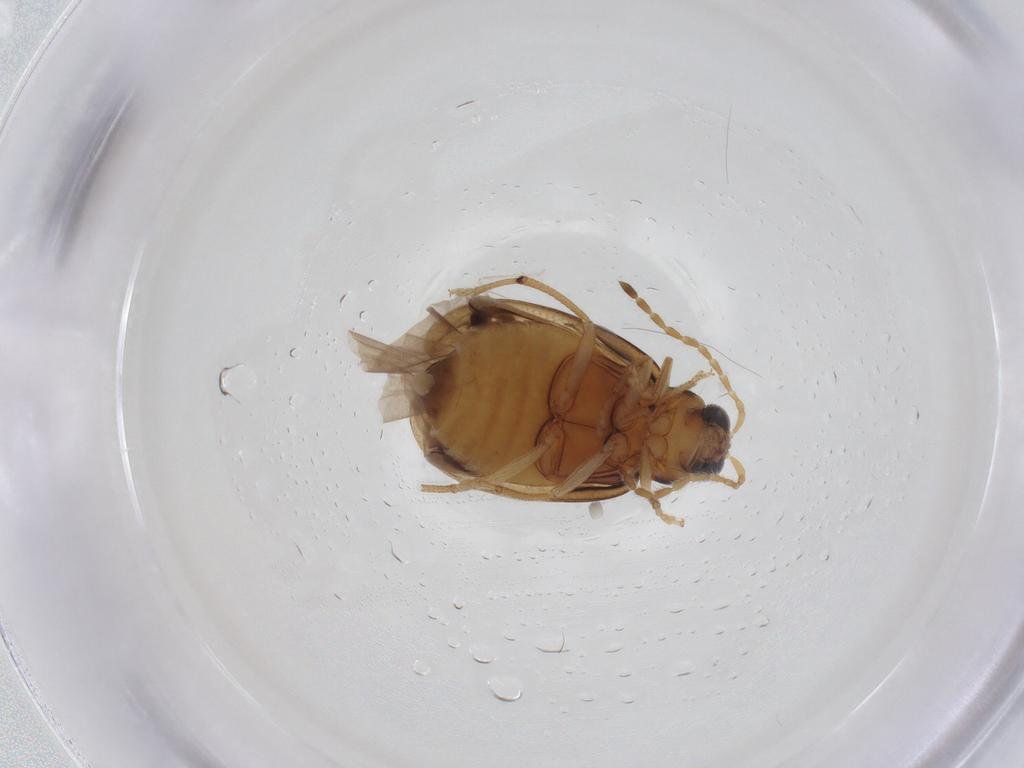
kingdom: Animalia
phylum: Arthropoda
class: Insecta
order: Coleoptera
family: Chrysomelidae
